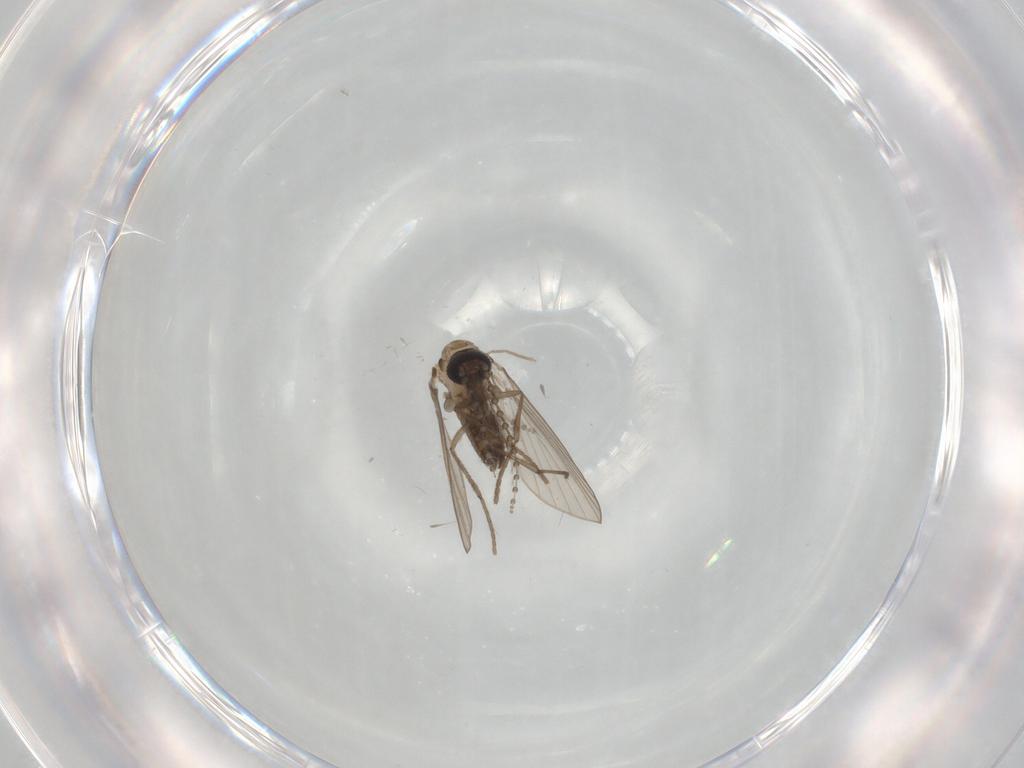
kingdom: Animalia
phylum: Arthropoda
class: Insecta
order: Diptera
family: Psychodidae
